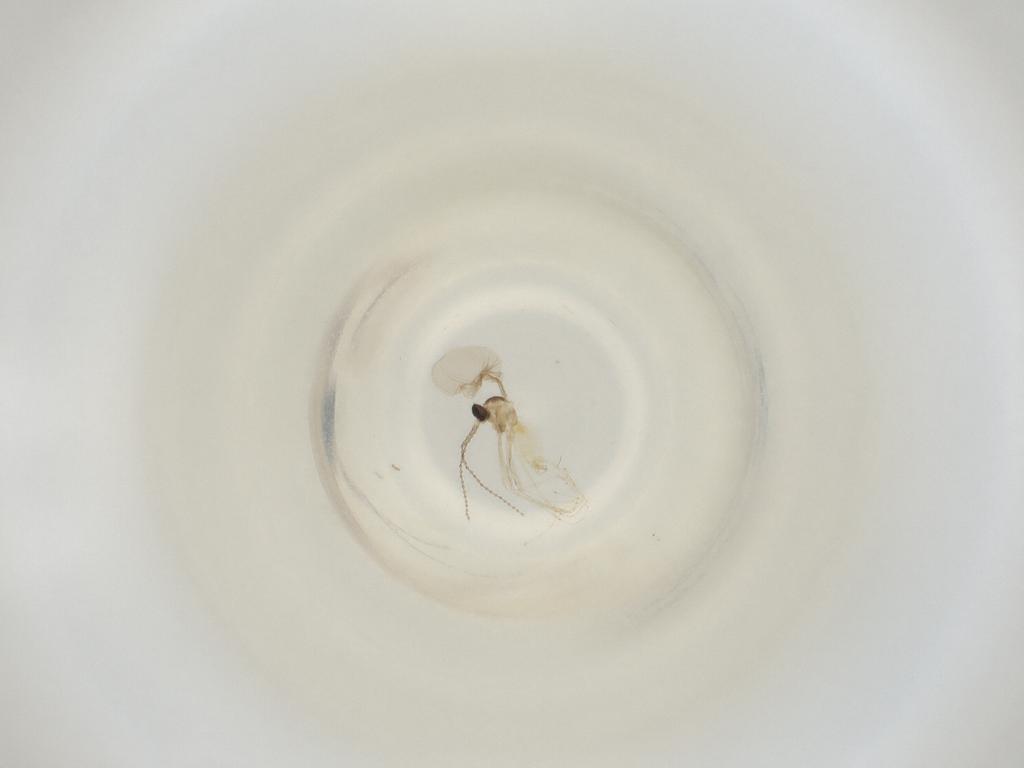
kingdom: Animalia
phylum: Arthropoda
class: Insecta
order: Diptera
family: Cecidomyiidae
